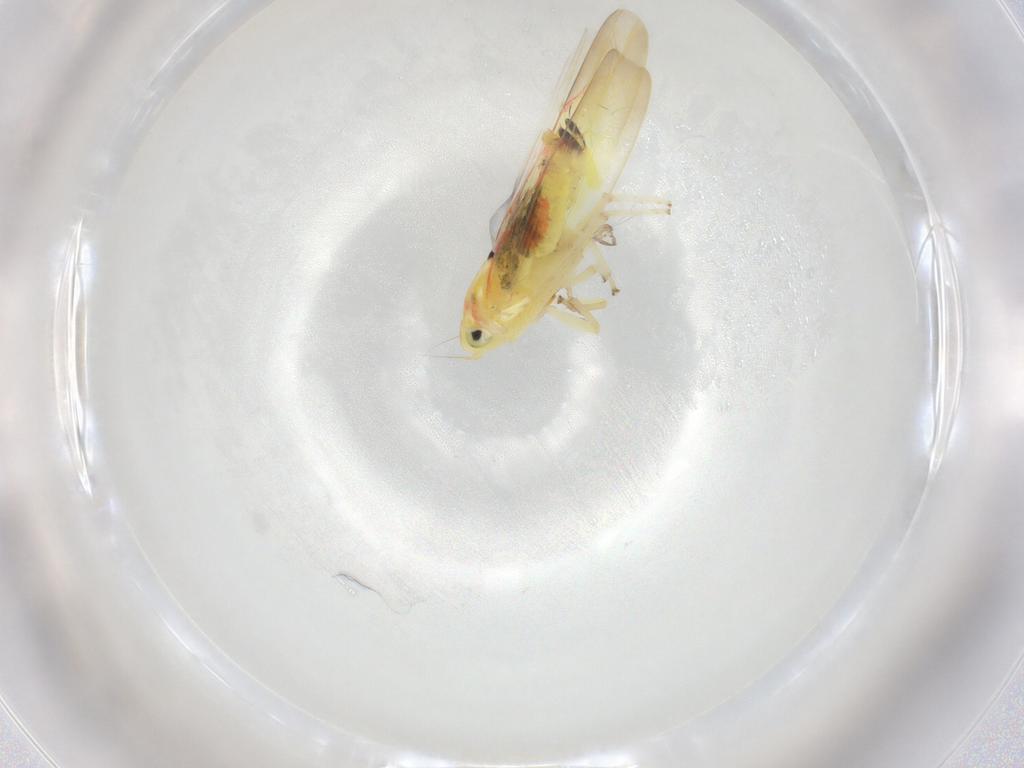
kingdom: Animalia
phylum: Arthropoda
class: Insecta
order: Hemiptera
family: Cicadellidae
